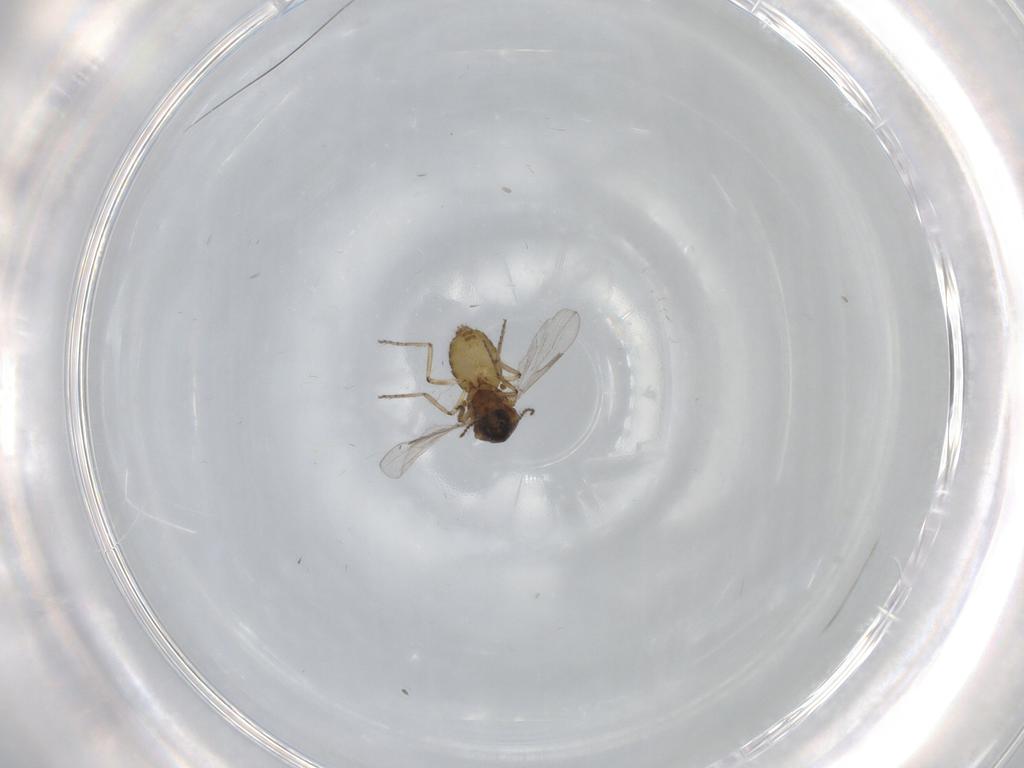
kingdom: Animalia
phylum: Arthropoda
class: Insecta
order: Diptera
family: Ceratopogonidae
